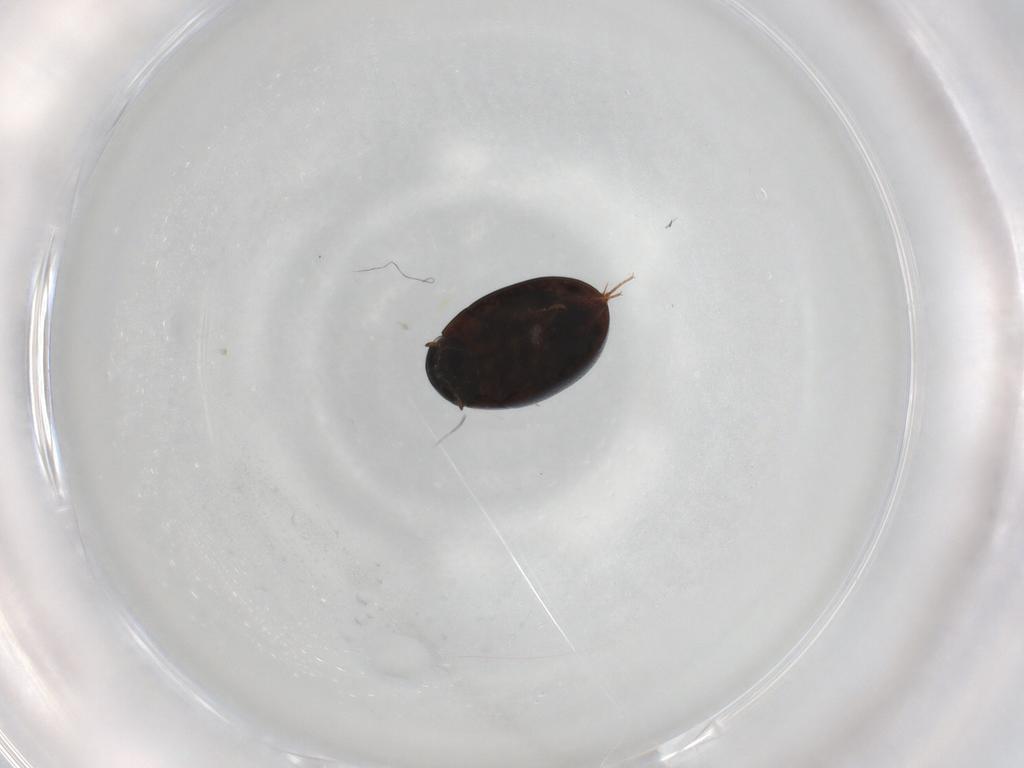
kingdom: Animalia
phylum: Arthropoda
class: Insecta
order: Coleoptera
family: Hydrophilidae
